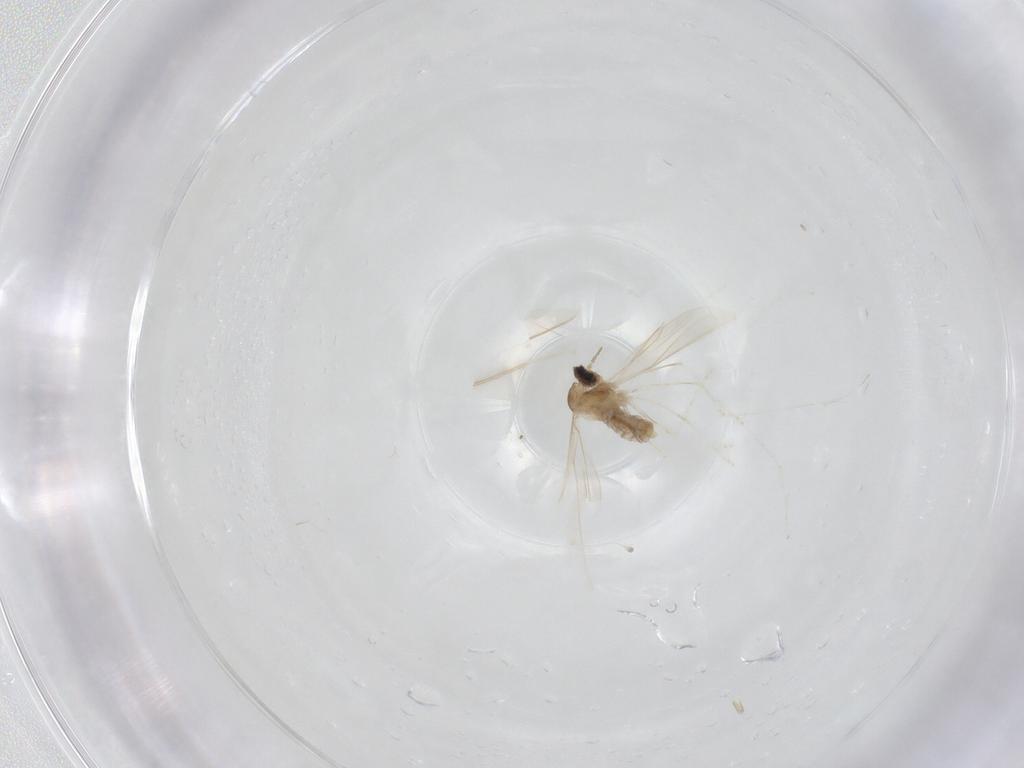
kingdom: Animalia
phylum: Arthropoda
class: Insecta
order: Diptera
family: Cecidomyiidae
